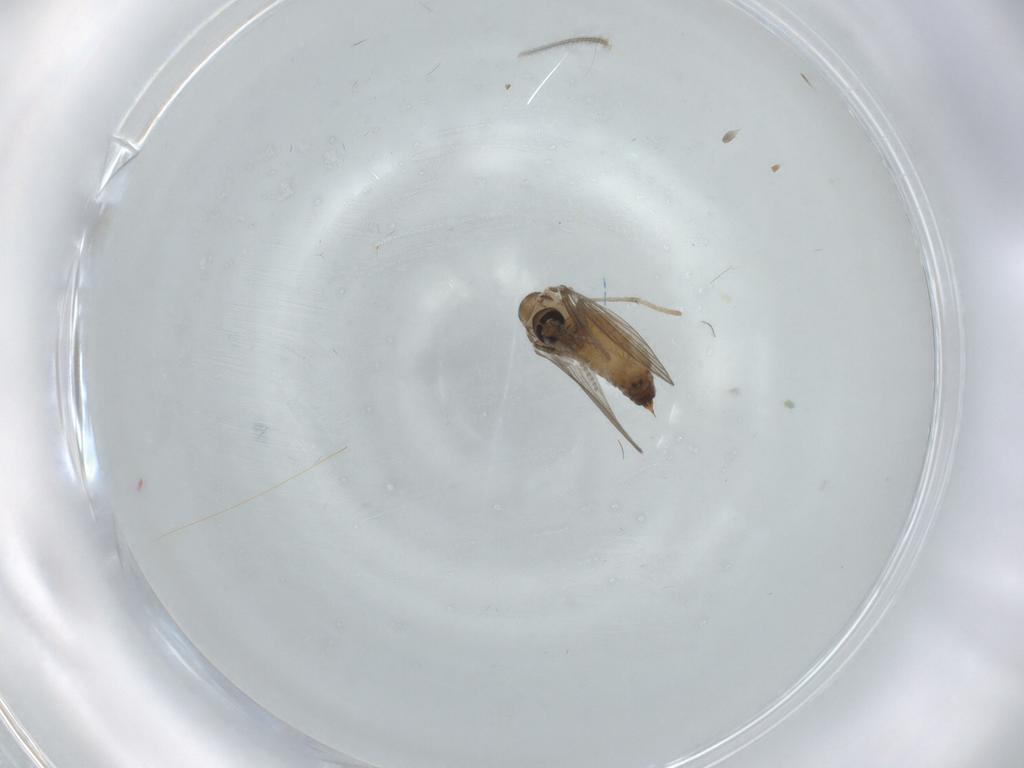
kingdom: Animalia
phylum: Arthropoda
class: Insecta
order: Diptera
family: Psychodidae
